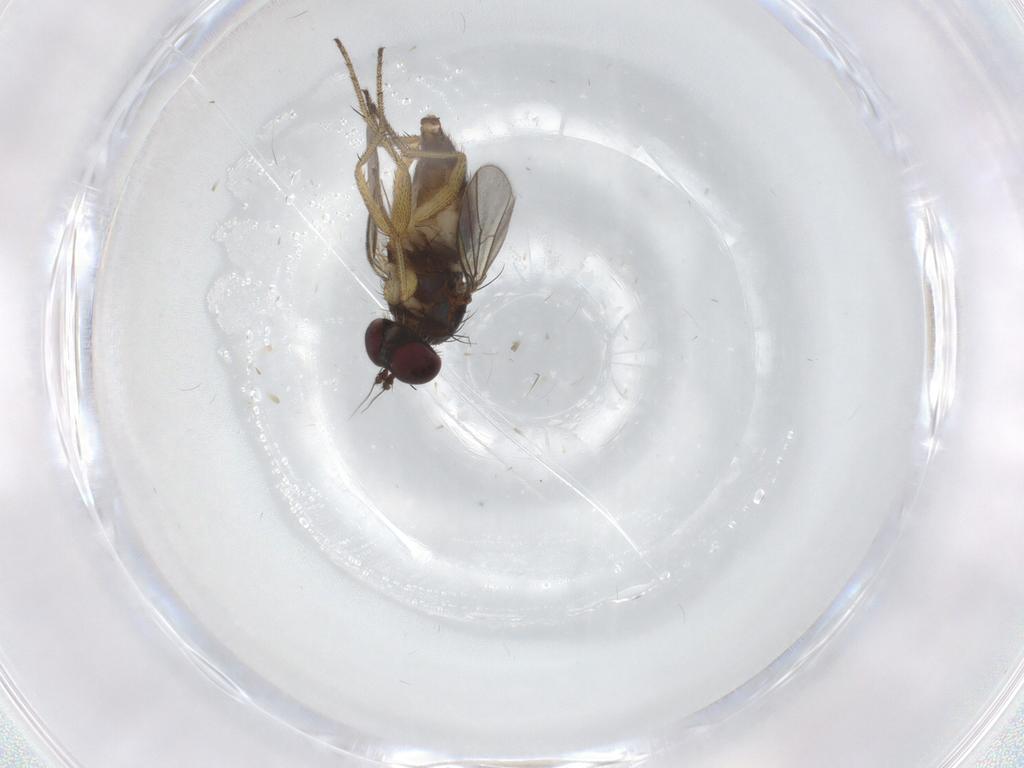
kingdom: Animalia
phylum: Arthropoda
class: Insecta
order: Diptera
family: Dolichopodidae
